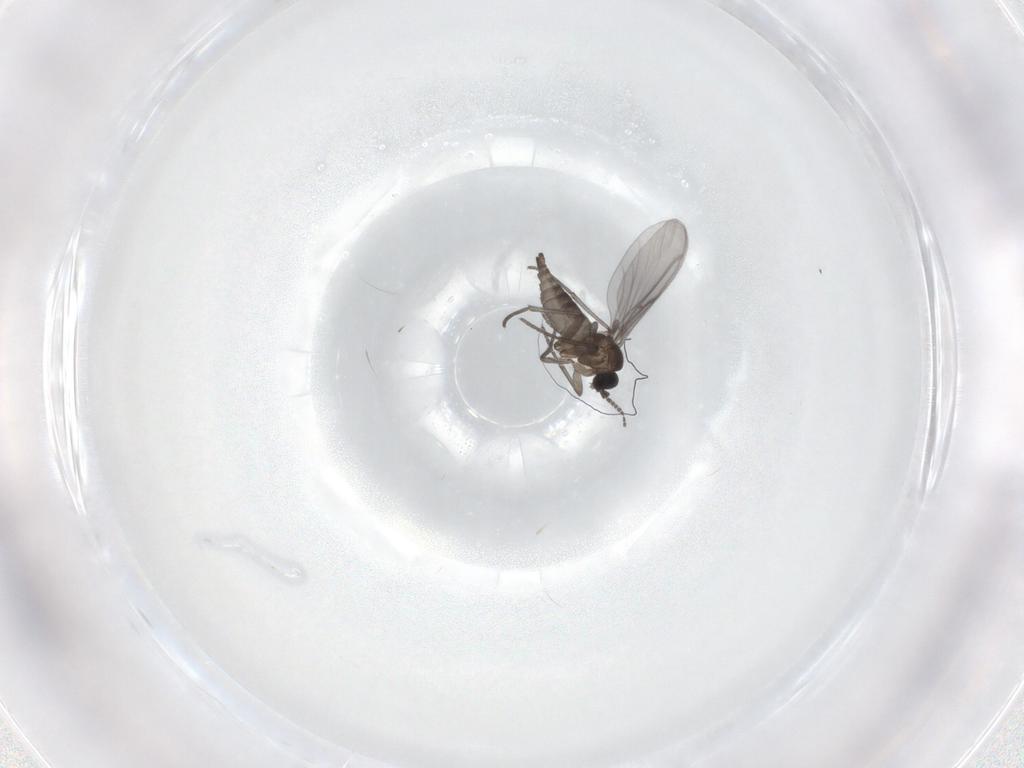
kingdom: Animalia
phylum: Arthropoda
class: Insecta
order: Diptera
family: Sciaridae
